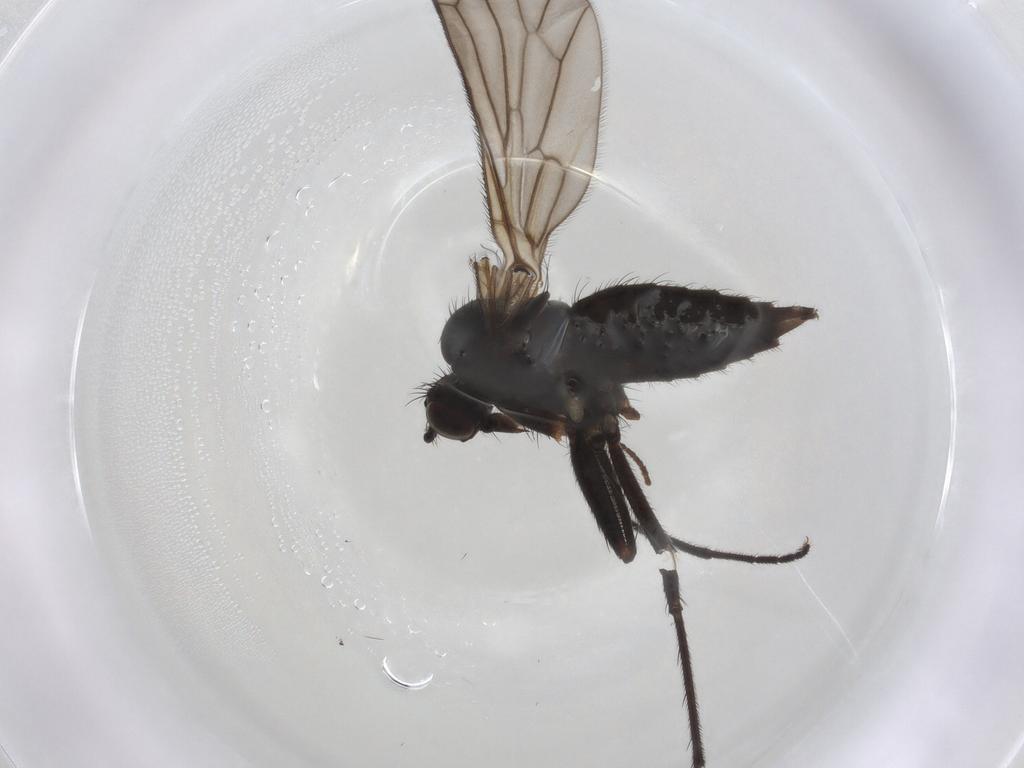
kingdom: Animalia
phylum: Arthropoda
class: Insecta
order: Diptera
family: Empididae
